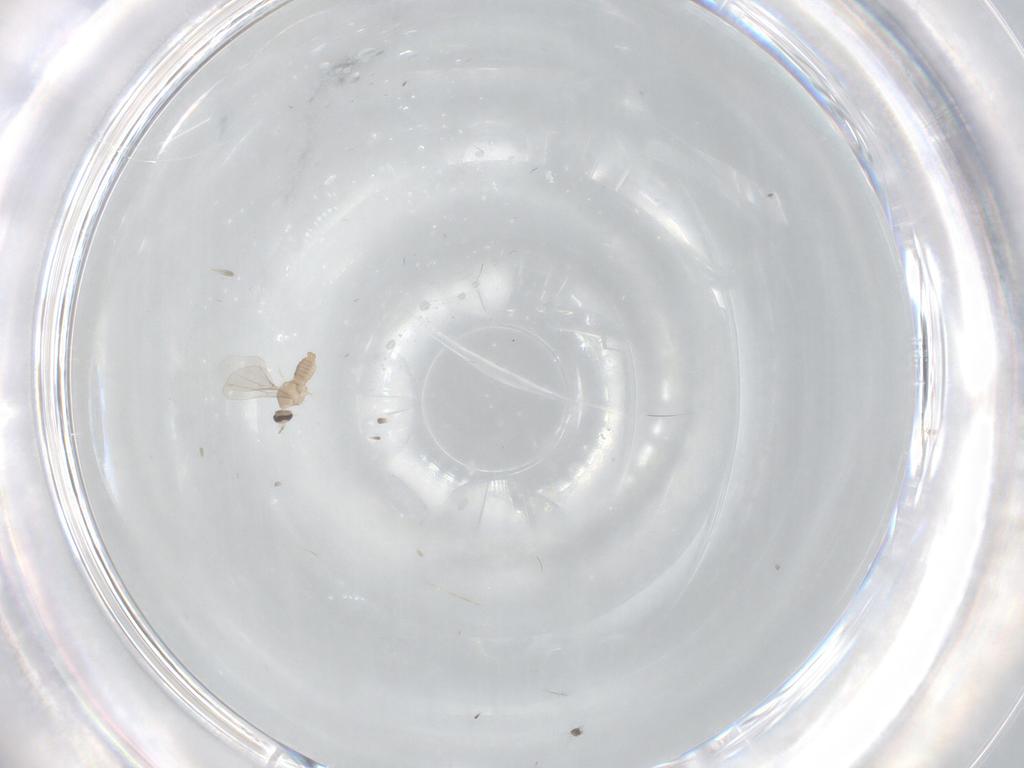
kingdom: Animalia
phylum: Arthropoda
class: Insecta
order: Diptera
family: Cecidomyiidae
